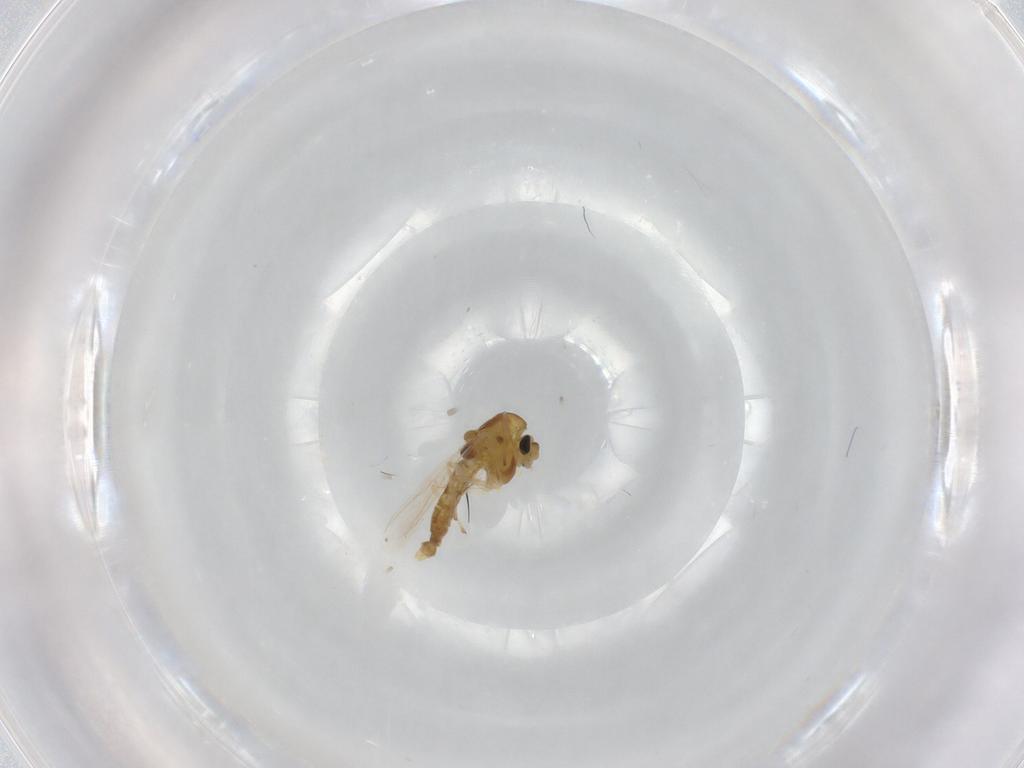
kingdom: Animalia
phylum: Arthropoda
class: Insecta
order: Diptera
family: Chironomidae
